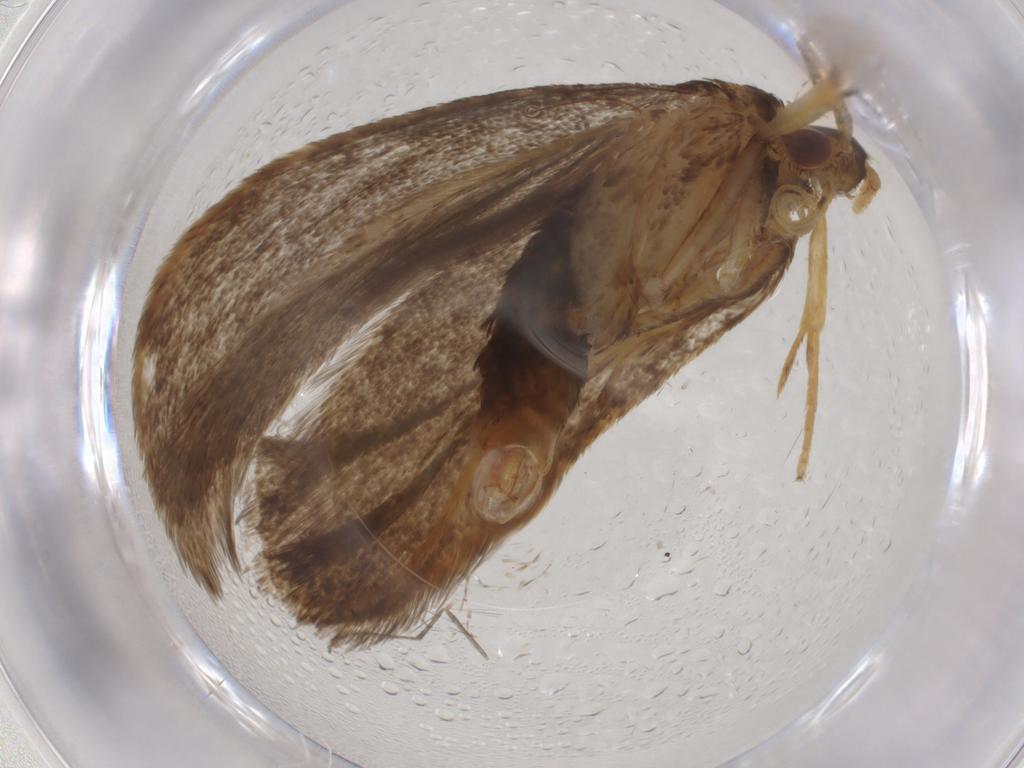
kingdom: Animalia
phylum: Arthropoda
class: Insecta
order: Lepidoptera
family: Lecithoceridae
